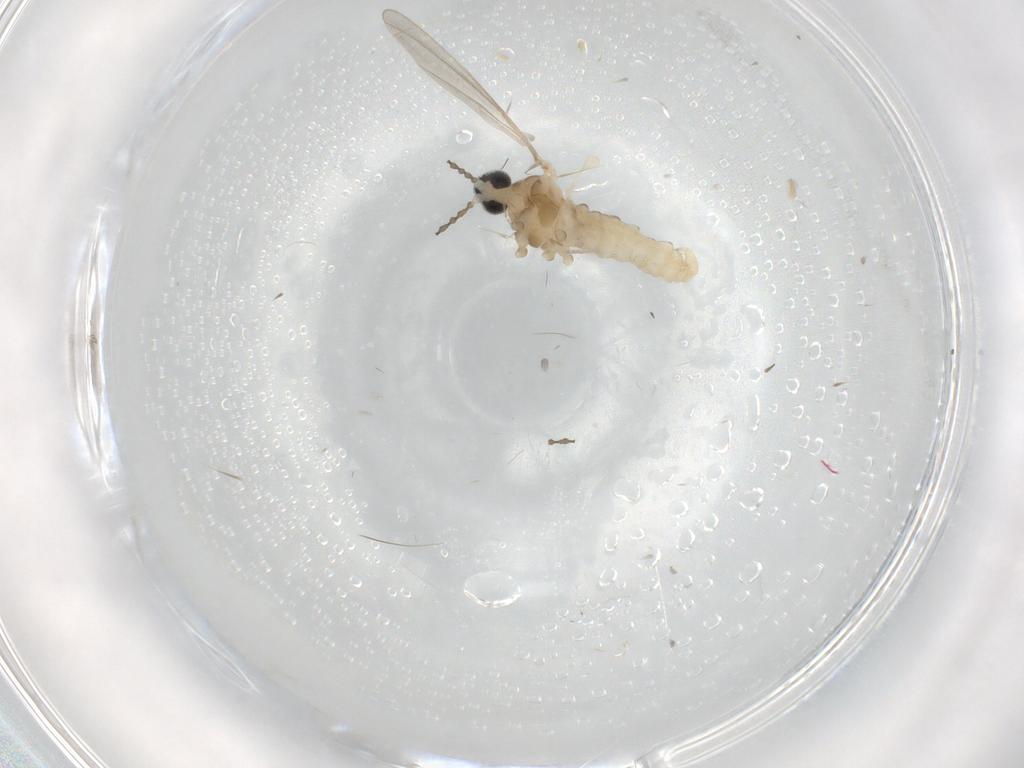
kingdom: Animalia
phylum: Arthropoda
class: Insecta
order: Diptera
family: Cecidomyiidae
